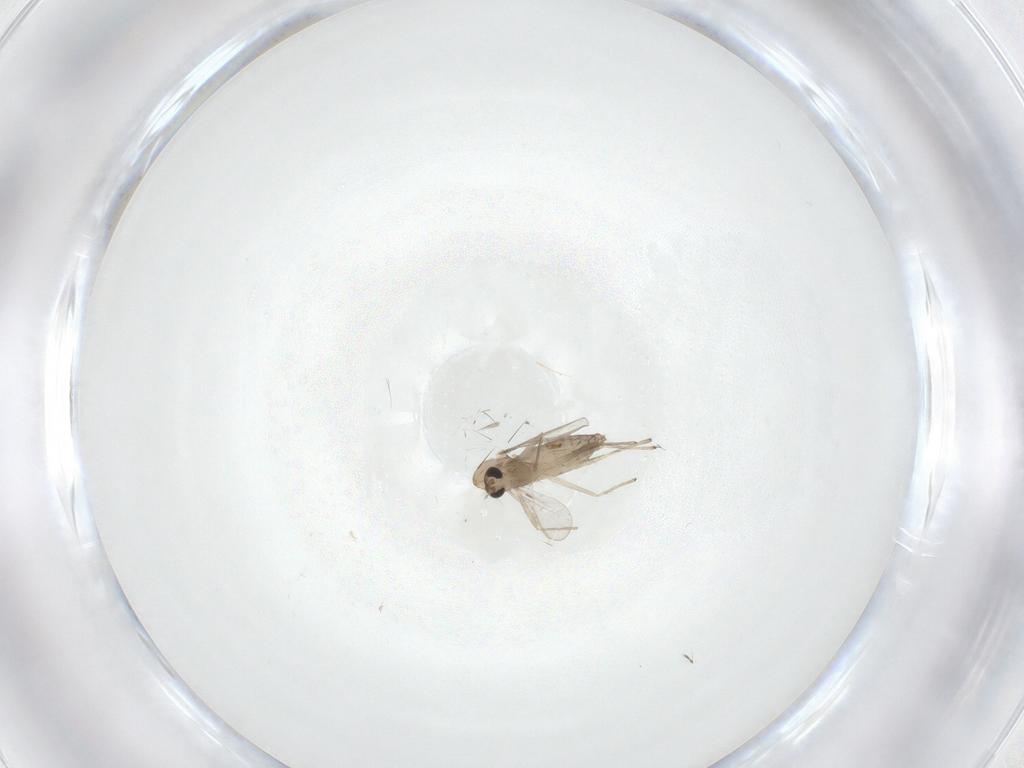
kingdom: Animalia
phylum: Arthropoda
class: Insecta
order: Diptera
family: Chironomidae
